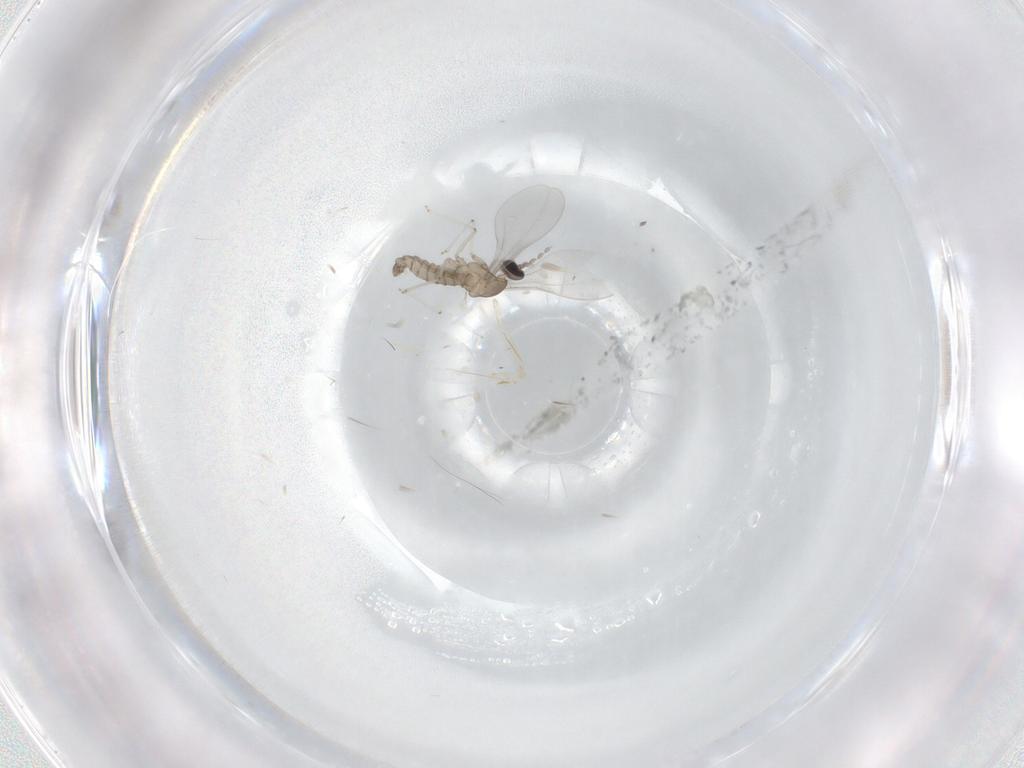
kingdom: Animalia
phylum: Arthropoda
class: Insecta
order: Diptera
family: Cecidomyiidae
